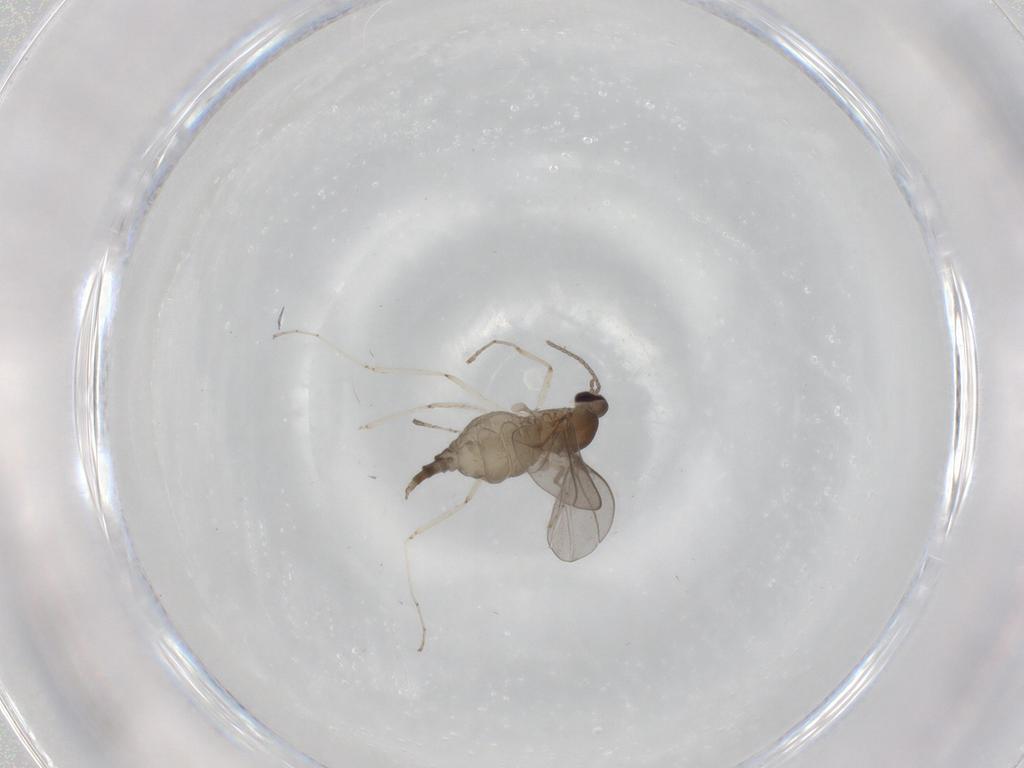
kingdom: Animalia
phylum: Arthropoda
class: Insecta
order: Diptera
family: Cecidomyiidae
